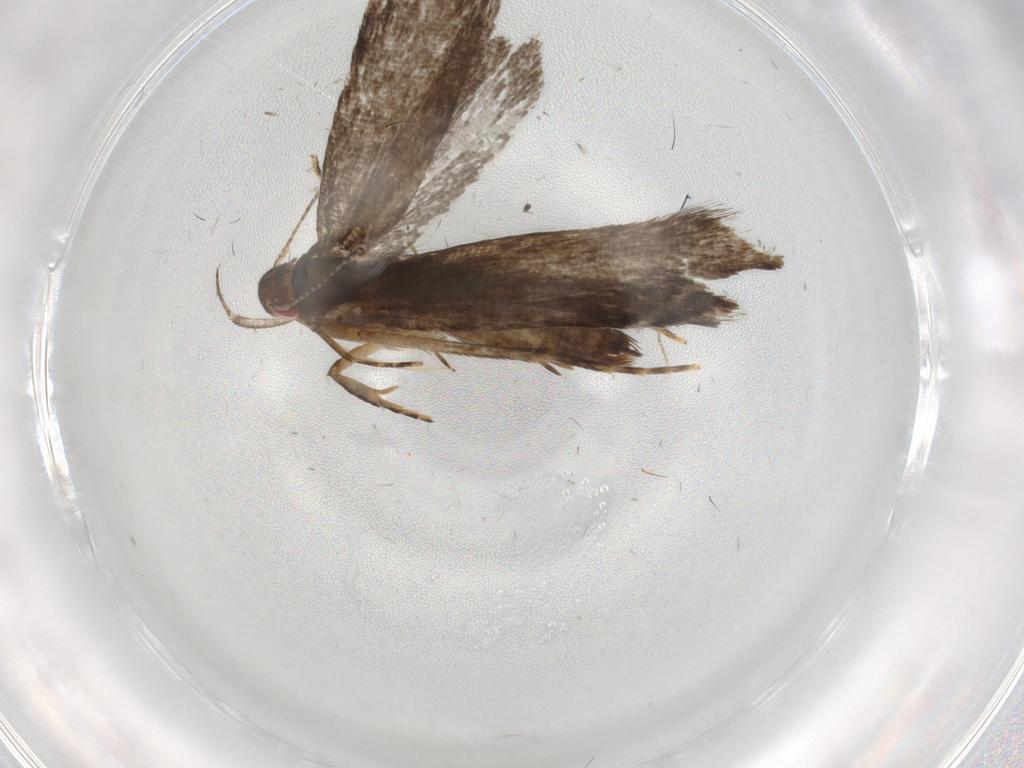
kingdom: Animalia
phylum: Arthropoda
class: Insecta
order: Lepidoptera
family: Gelechiidae
